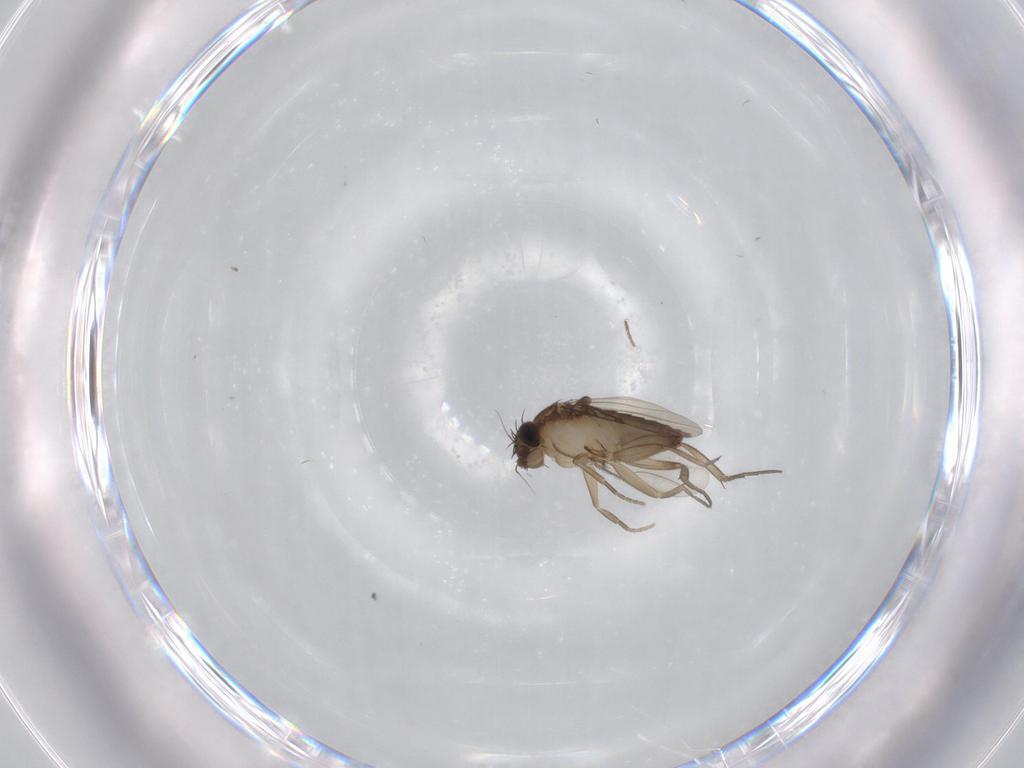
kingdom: Animalia
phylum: Arthropoda
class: Insecta
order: Diptera
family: Phoridae
